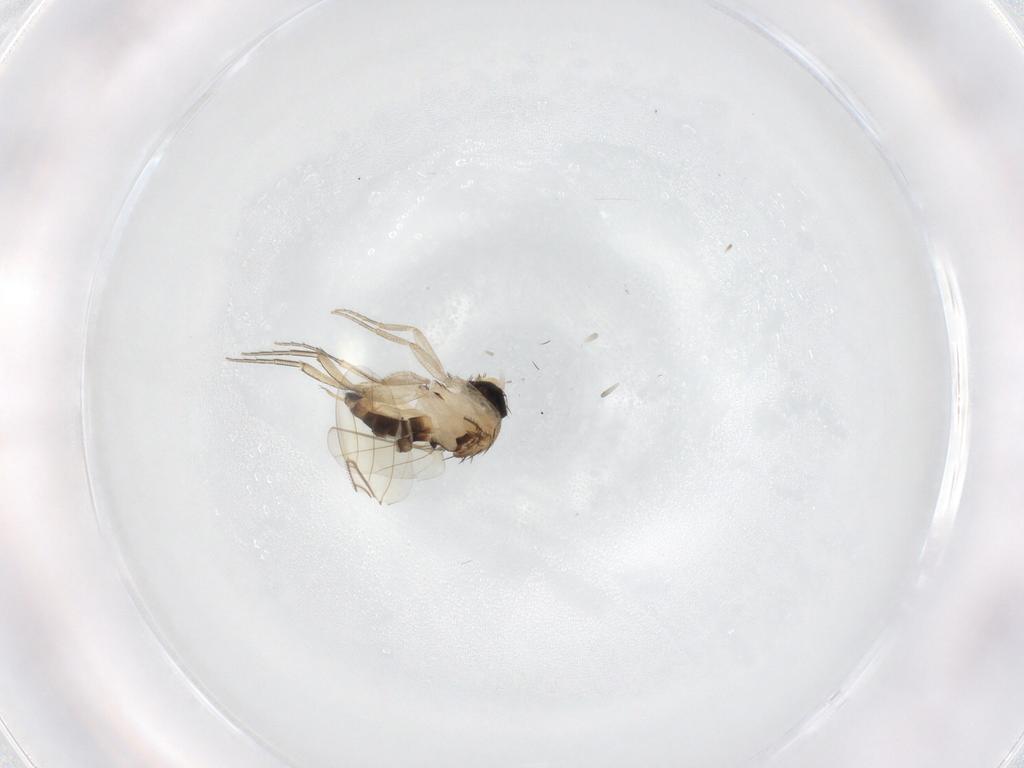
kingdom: Animalia
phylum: Arthropoda
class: Insecta
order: Diptera
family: Phoridae
